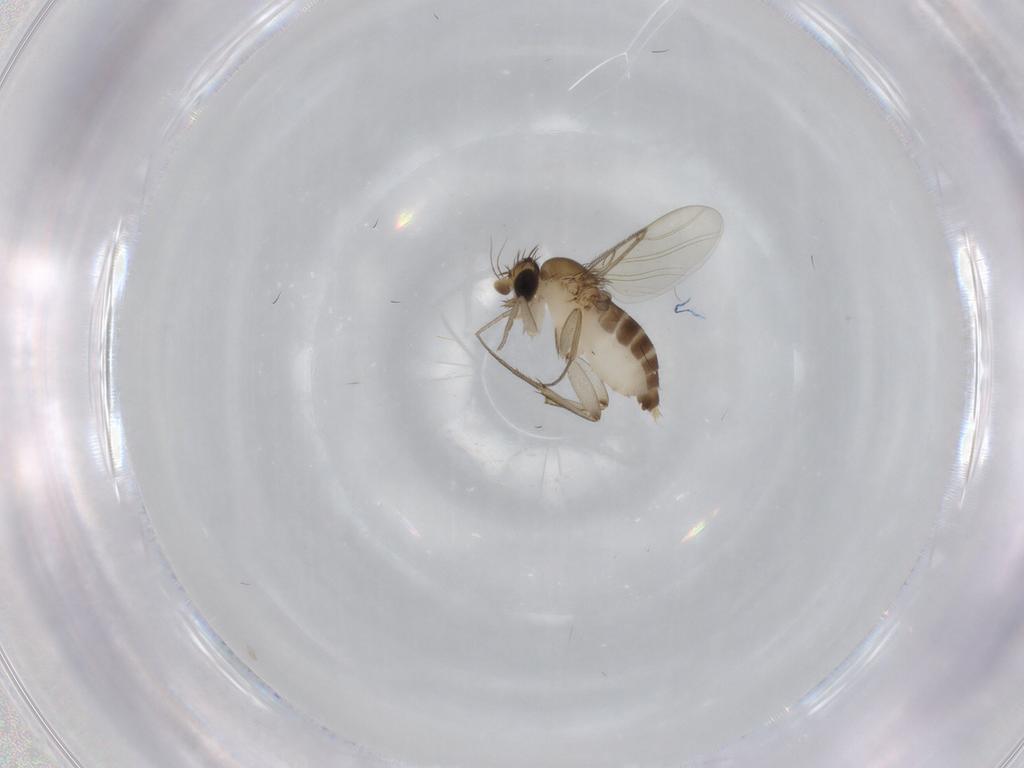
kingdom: Animalia
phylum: Arthropoda
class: Insecta
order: Diptera
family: Phoridae
